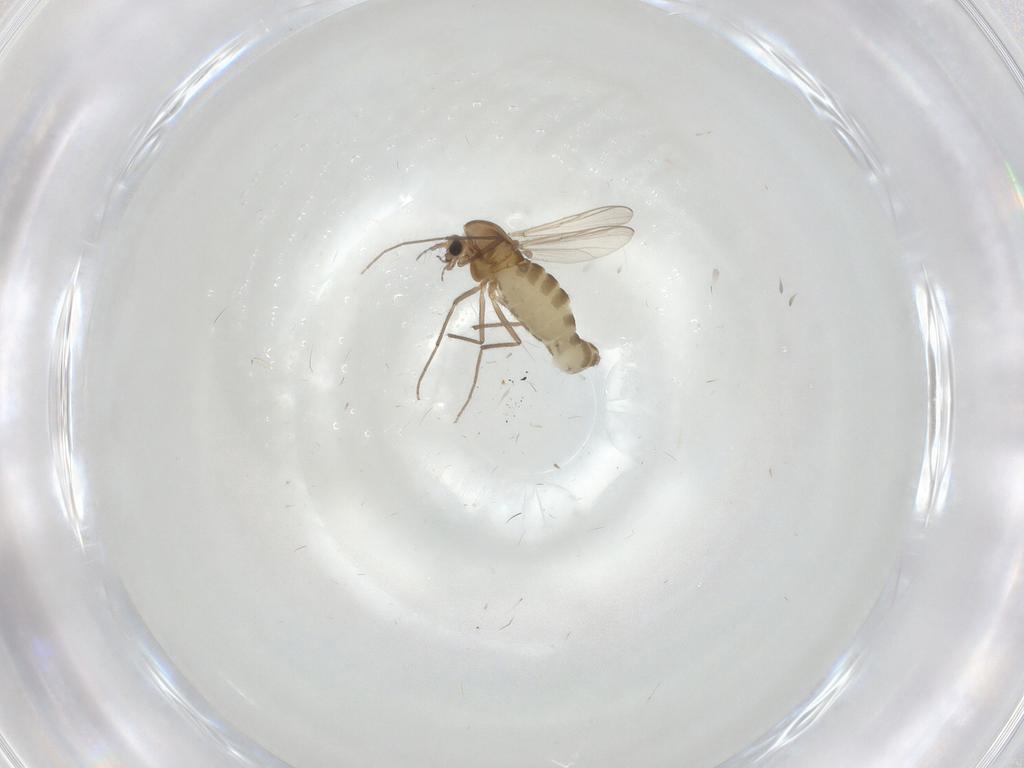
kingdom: Animalia
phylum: Arthropoda
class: Insecta
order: Diptera
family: Chironomidae
